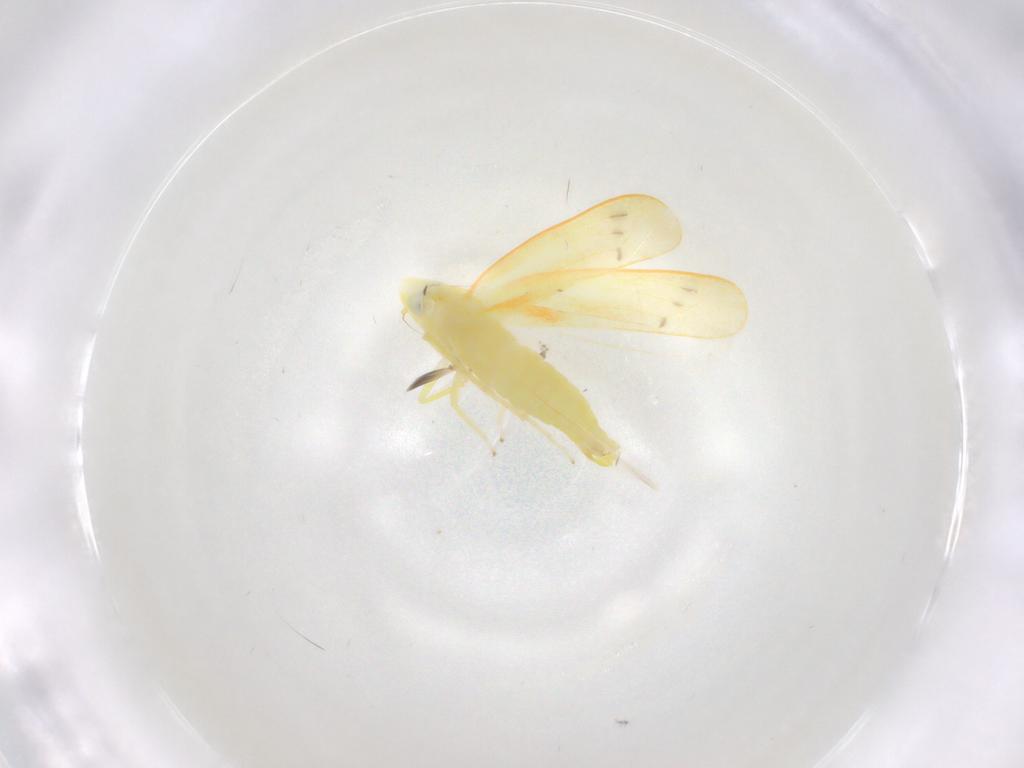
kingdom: Animalia
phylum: Arthropoda
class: Insecta
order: Hemiptera
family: Cicadellidae
